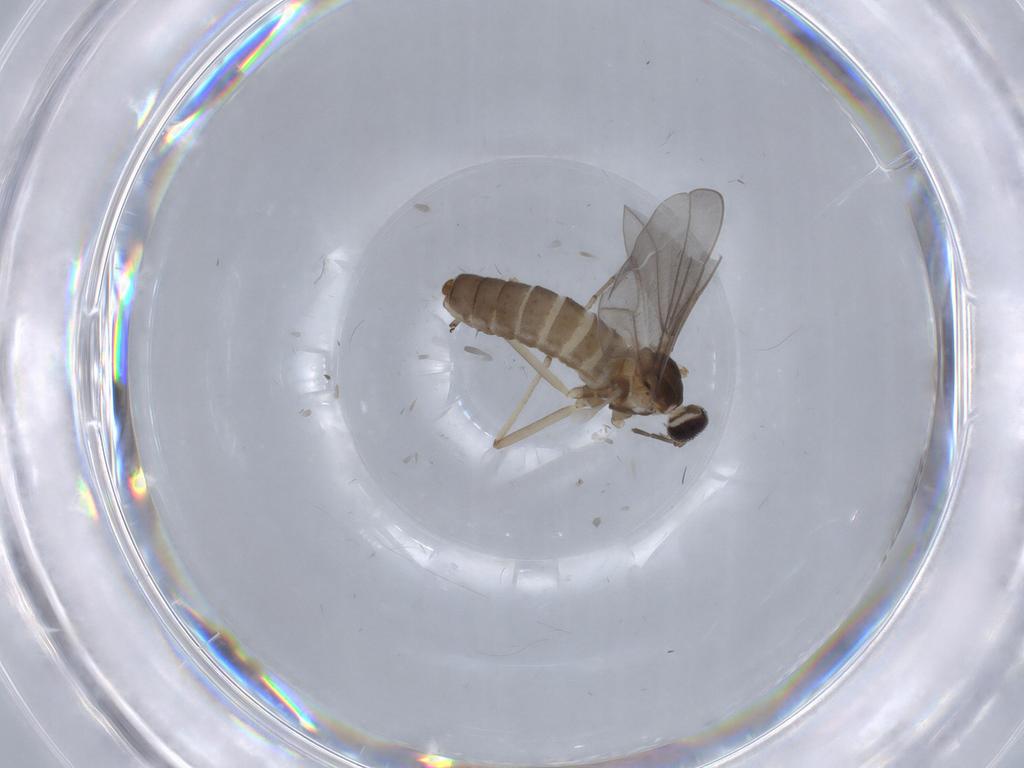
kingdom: Animalia
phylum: Arthropoda
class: Insecta
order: Diptera
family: Cecidomyiidae
